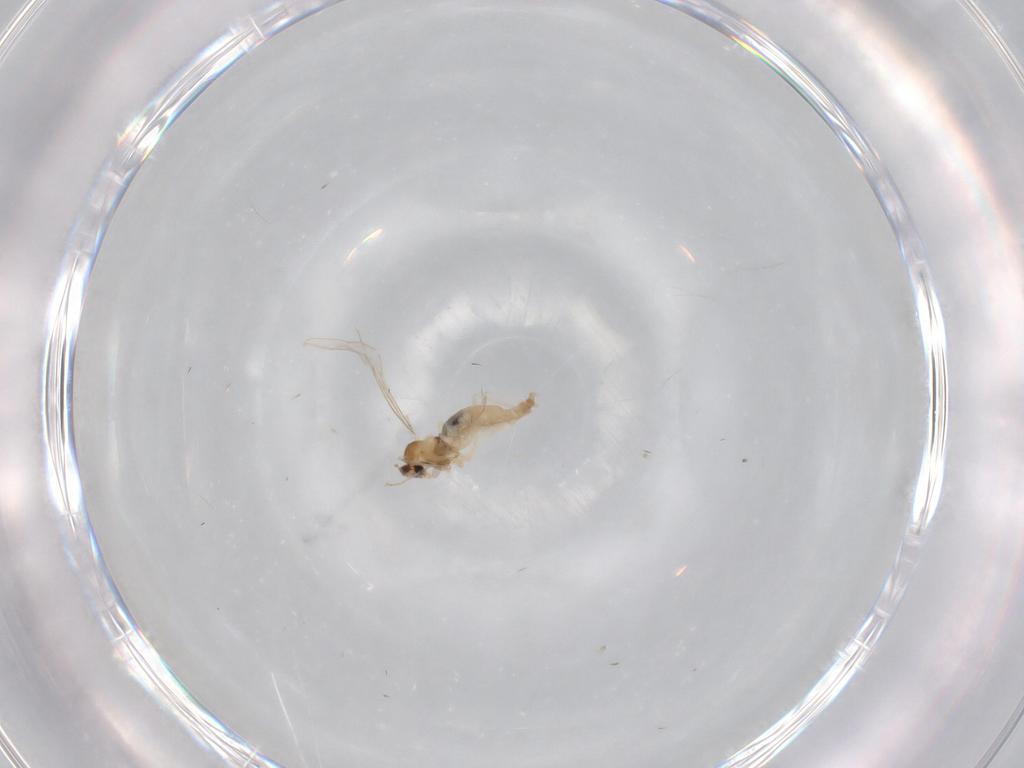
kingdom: Animalia
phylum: Arthropoda
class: Insecta
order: Diptera
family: Cecidomyiidae
